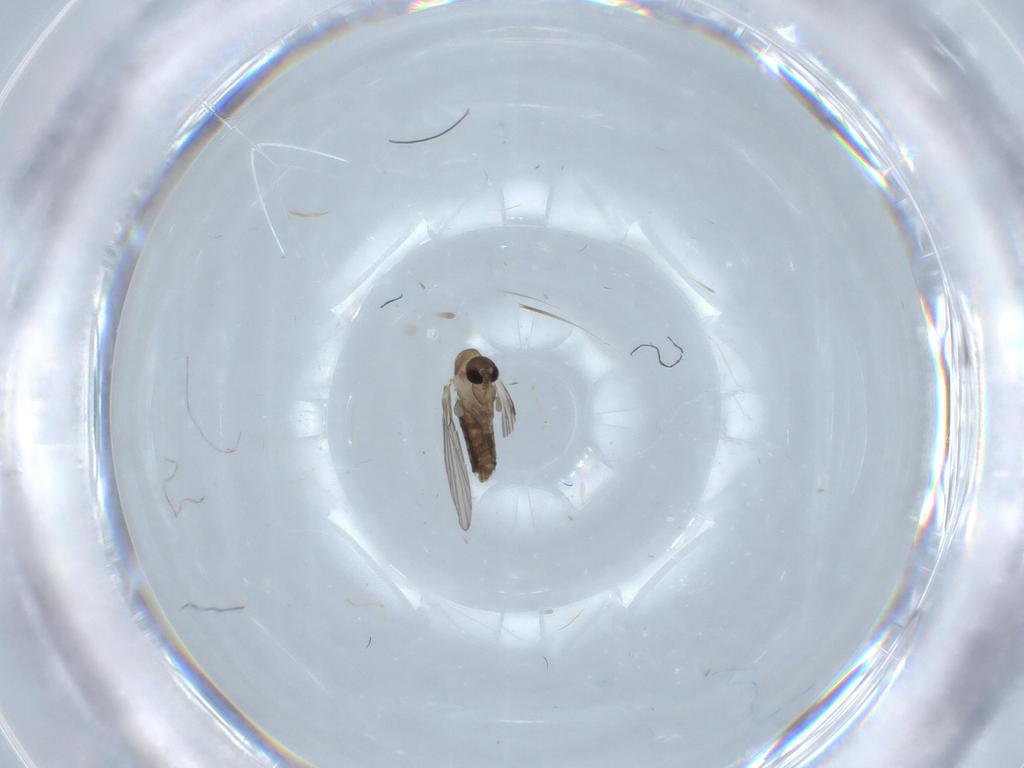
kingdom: Animalia
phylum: Arthropoda
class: Insecta
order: Diptera
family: Psychodidae
